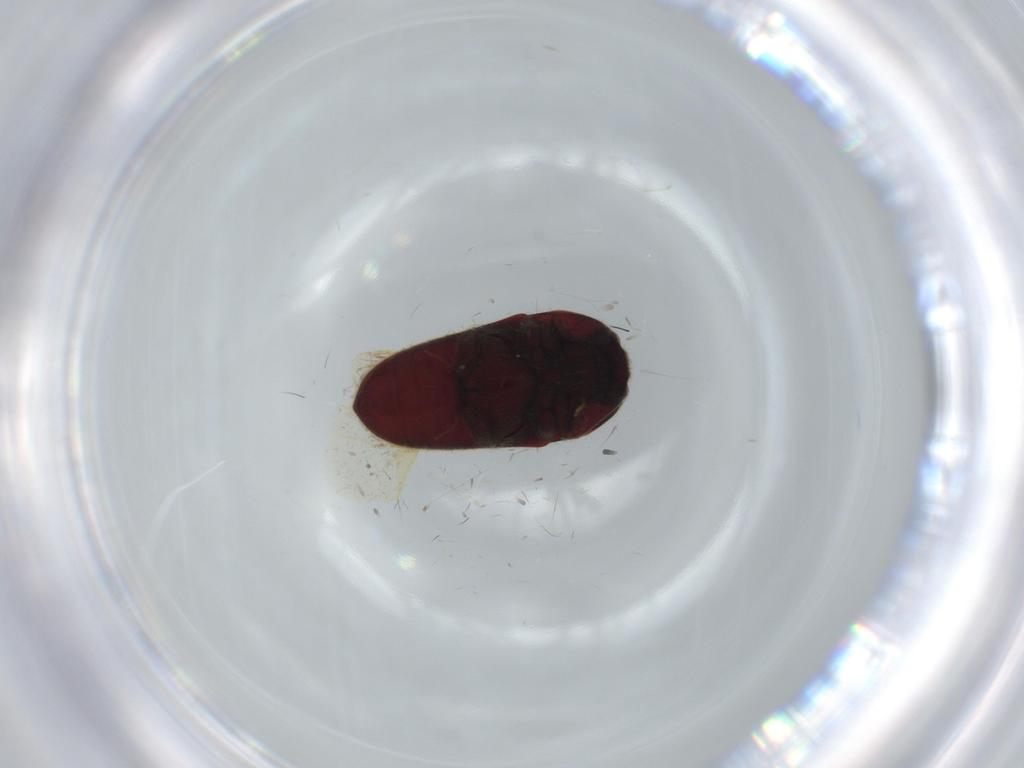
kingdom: Animalia
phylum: Arthropoda
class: Insecta
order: Coleoptera
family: Throscidae
